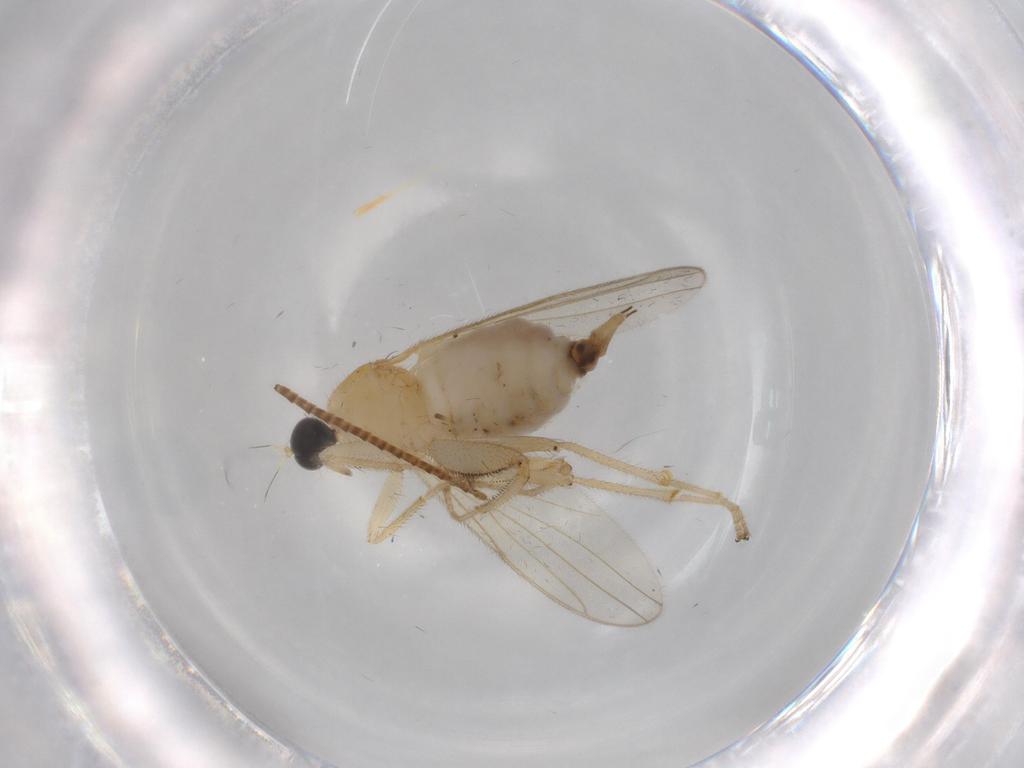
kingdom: Animalia
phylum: Arthropoda
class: Insecta
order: Diptera
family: Hybotidae
